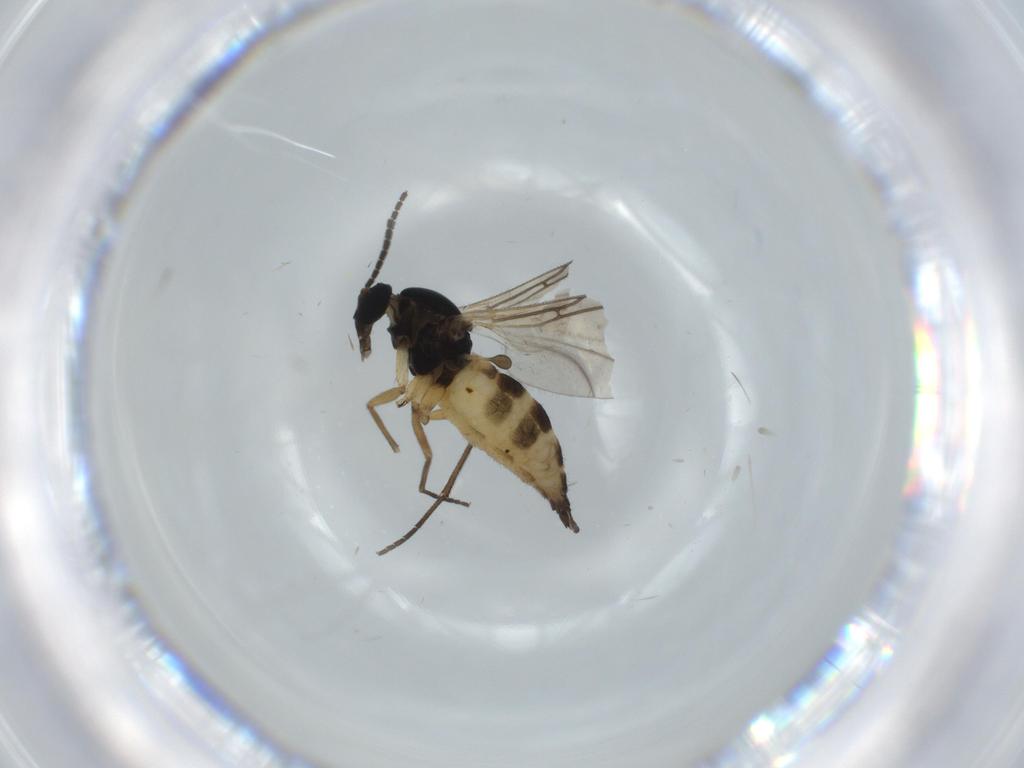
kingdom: Animalia
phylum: Arthropoda
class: Insecta
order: Diptera
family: Sciaridae
